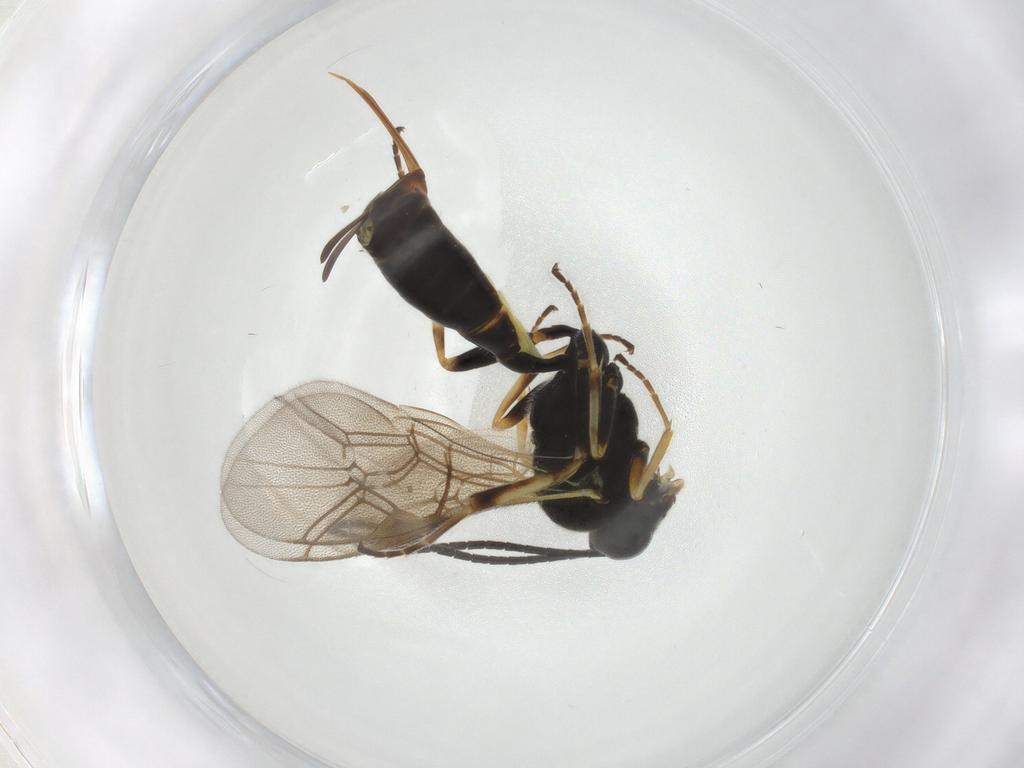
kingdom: Animalia
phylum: Arthropoda
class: Insecta
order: Hymenoptera
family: Ichneumonidae
